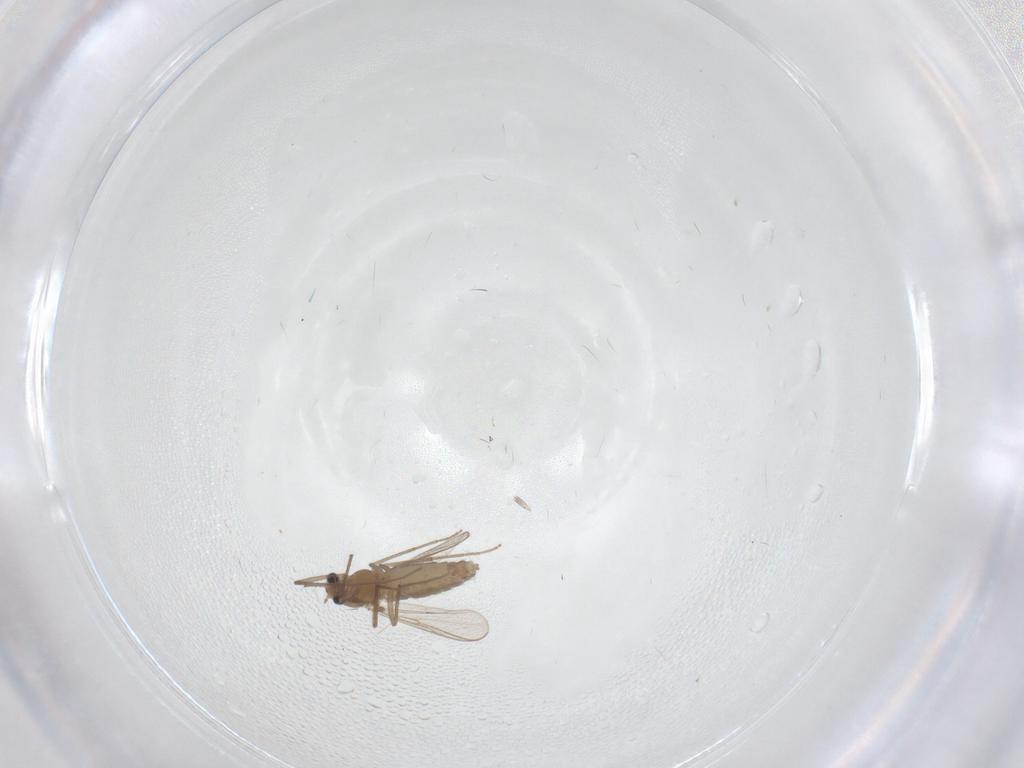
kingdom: Animalia
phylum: Arthropoda
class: Insecta
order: Diptera
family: Chironomidae
